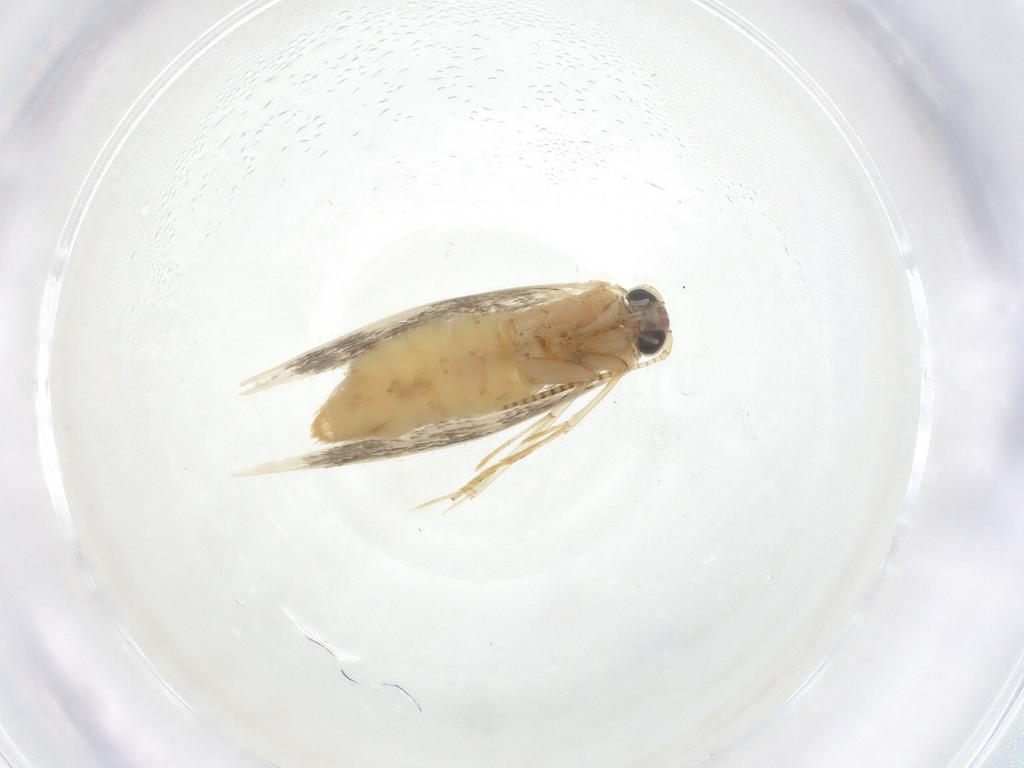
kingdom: Animalia
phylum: Arthropoda
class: Insecta
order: Lepidoptera
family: Tineidae
